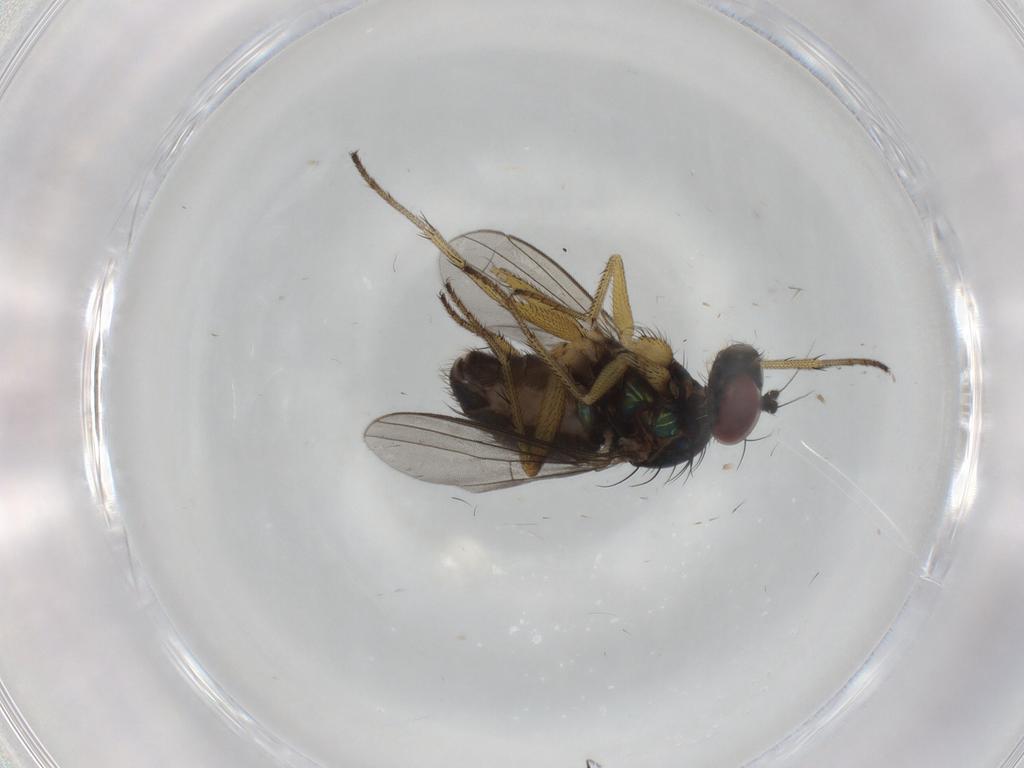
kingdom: Animalia
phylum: Arthropoda
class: Insecta
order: Diptera
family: Dolichopodidae
